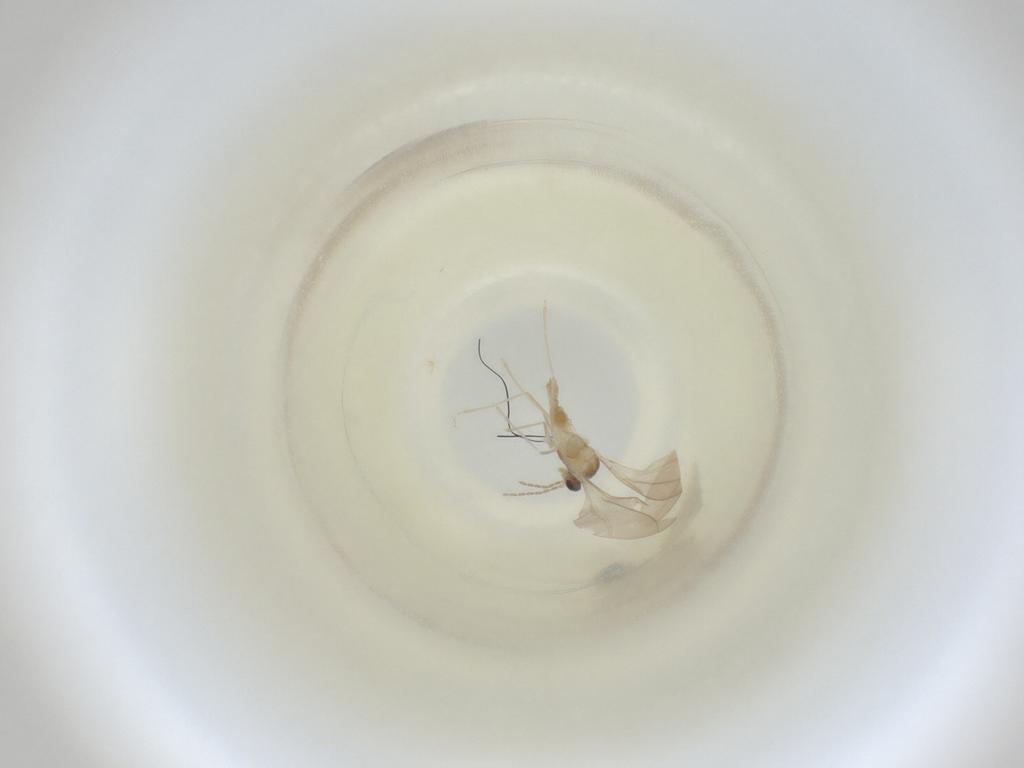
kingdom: Animalia
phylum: Arthropoda
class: Insecta
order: Diptera
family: Cecidomyiidae
